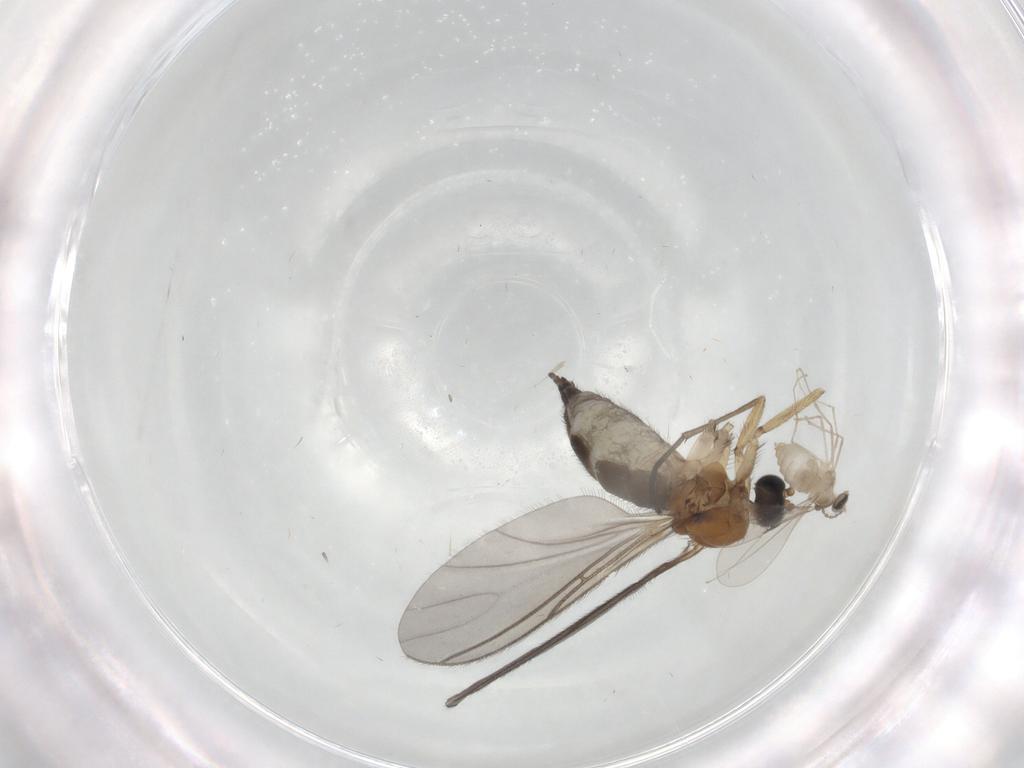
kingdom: Animalia
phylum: Arthropoda
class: Insecta
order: Diptera
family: Sciaridae
